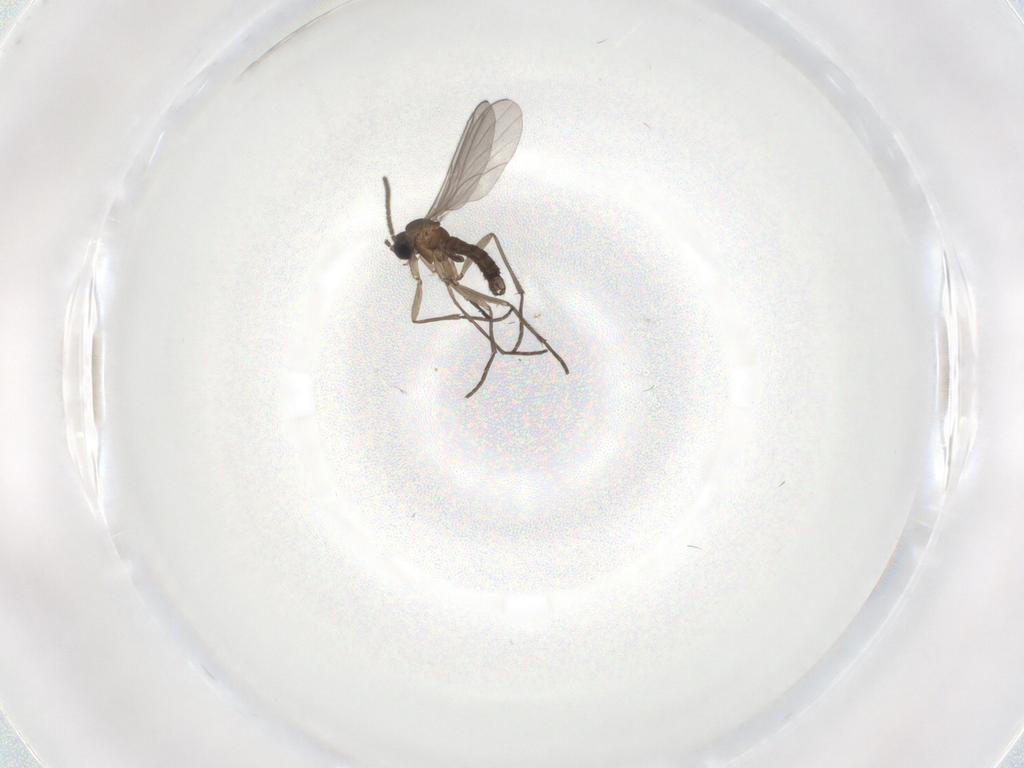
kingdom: Animalia
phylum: Arthropoda
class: Insecta
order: Diptera
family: Sciaridae
